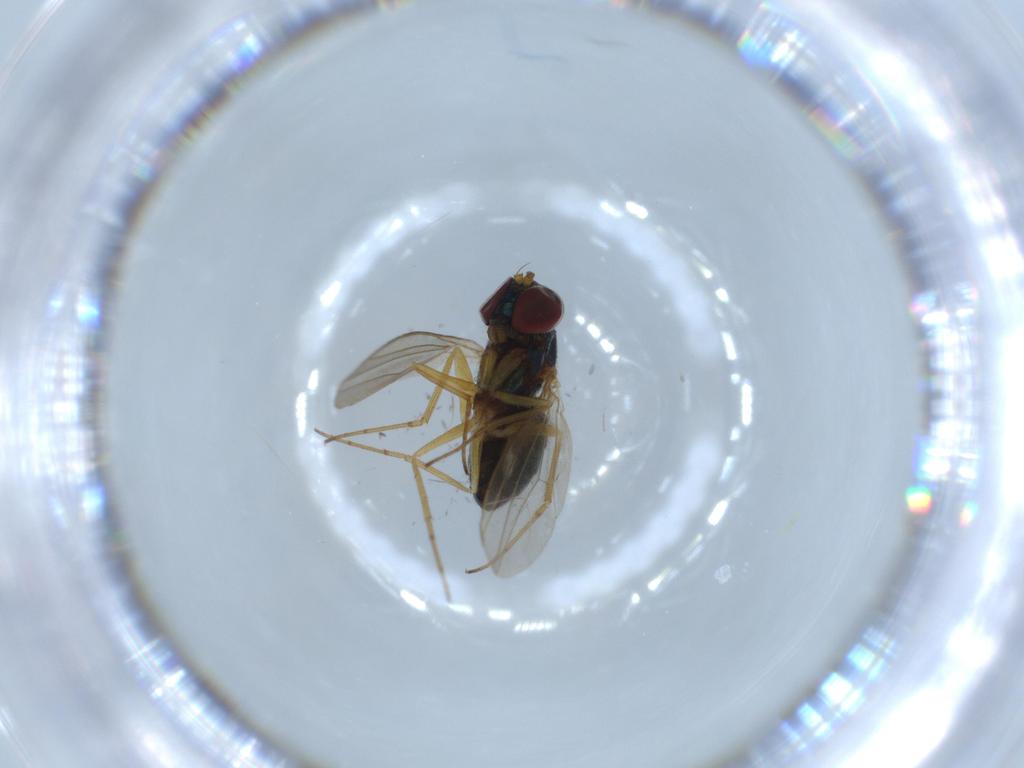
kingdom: Animalia
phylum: Arthropoda
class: Insecta
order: Diptera
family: Dolichopodidae
